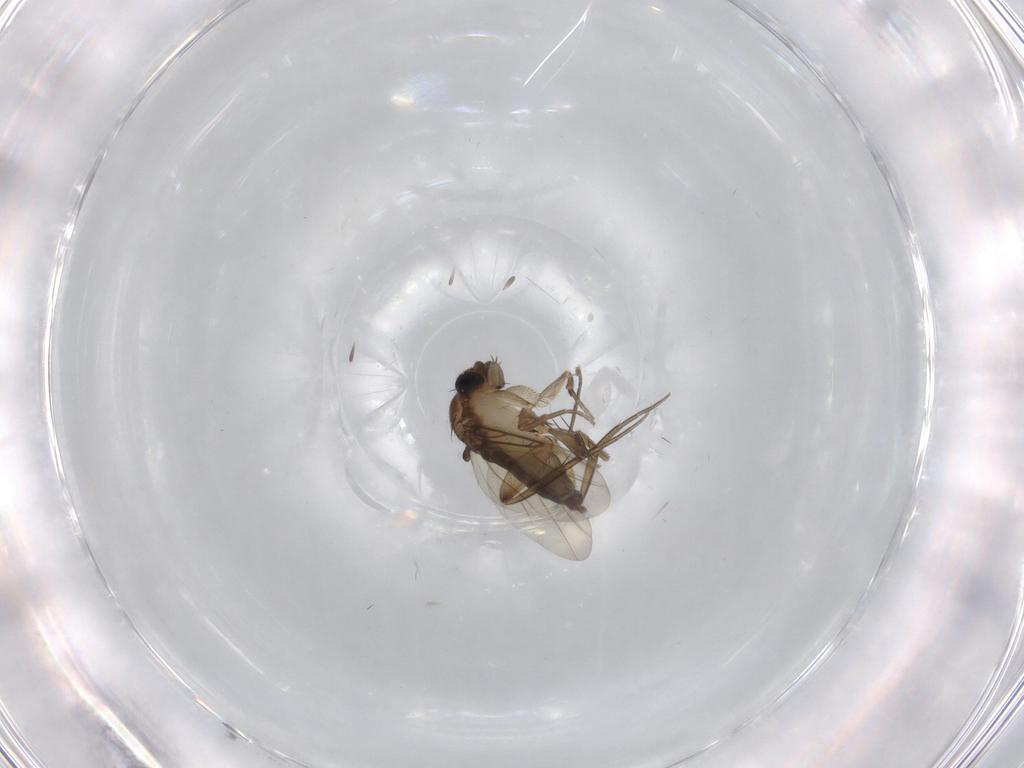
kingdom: Animalia
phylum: Arthropoda
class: Insecta
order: Diptera
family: Phoridae
